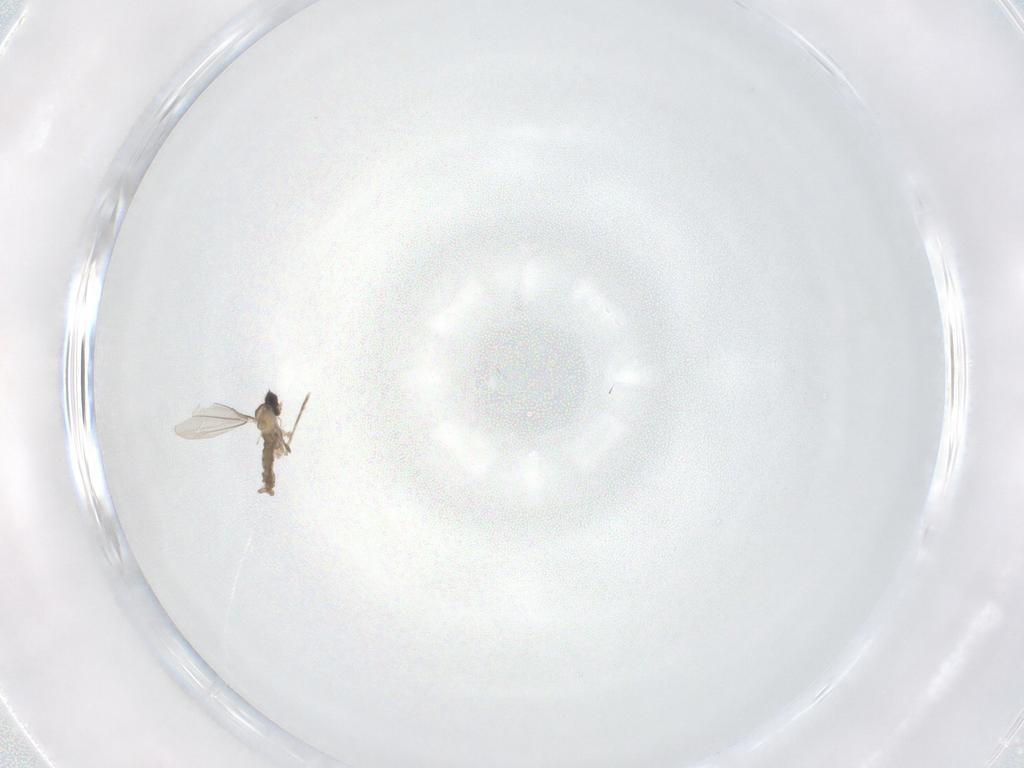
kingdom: Animalia
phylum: Arthropoda
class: Insecta
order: Diptera
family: Cecidomyiidae
